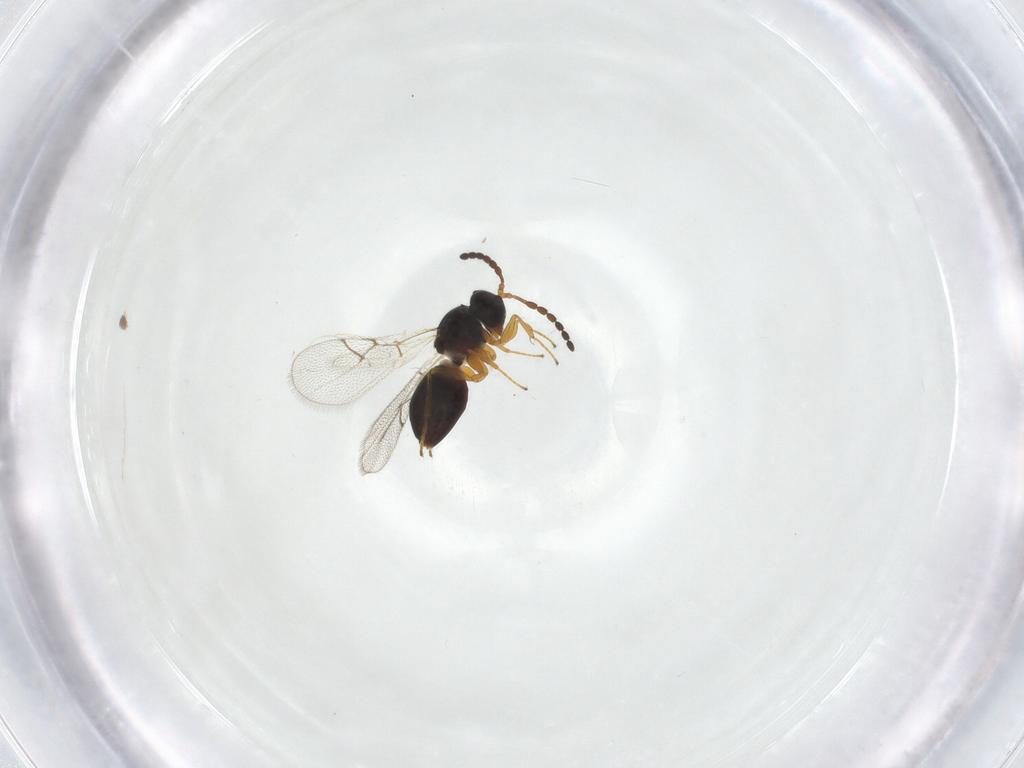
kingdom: Animalia
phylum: Arthropoda
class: Insecta
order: Hymenoptera
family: Figitidae
